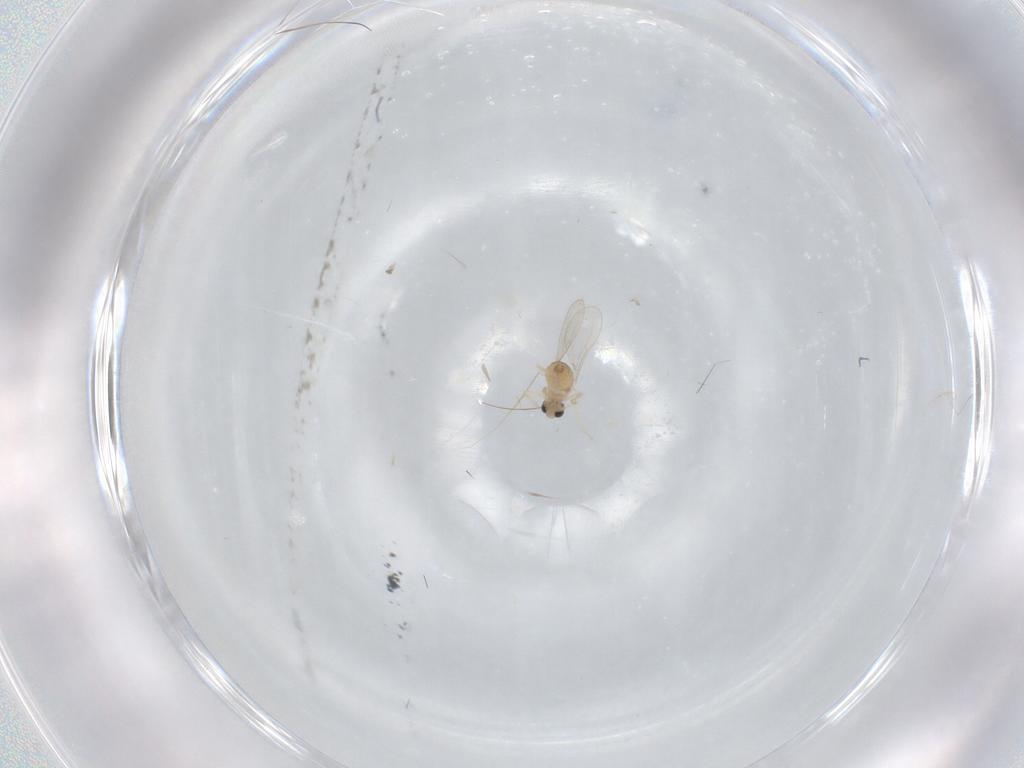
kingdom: Animalia
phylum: Arthropoda
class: Insecta
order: Diptera
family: Cecidomyiidae
